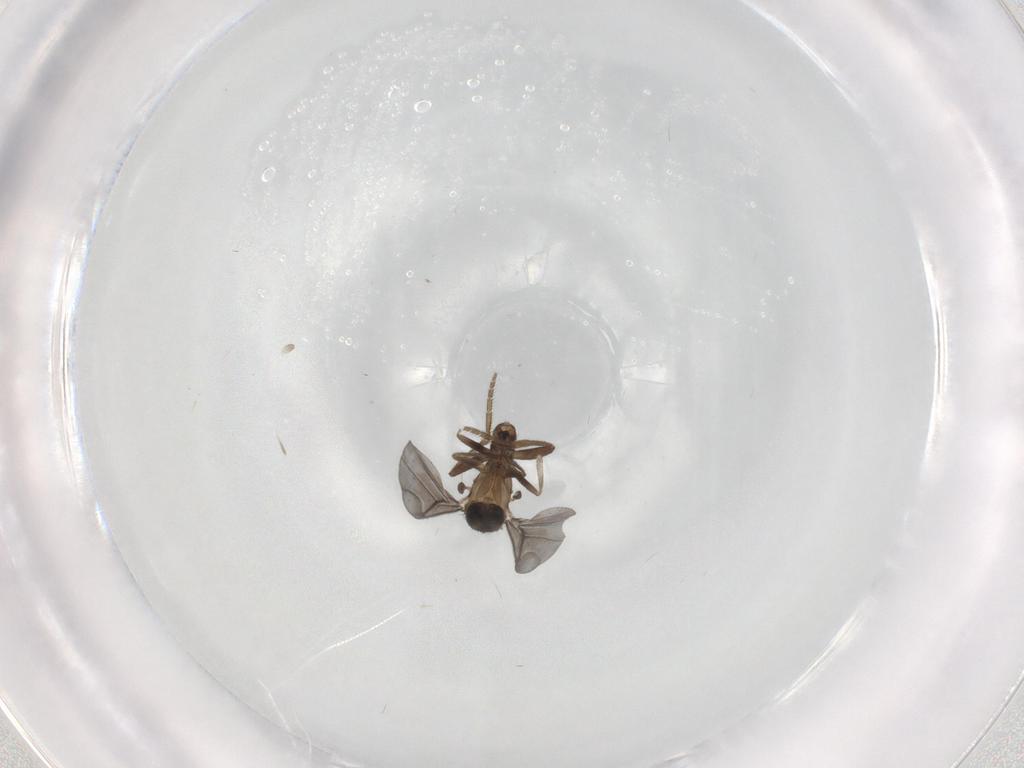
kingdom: Animalia
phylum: Arthropoda
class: Insecta
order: Diptera
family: Phoridae
